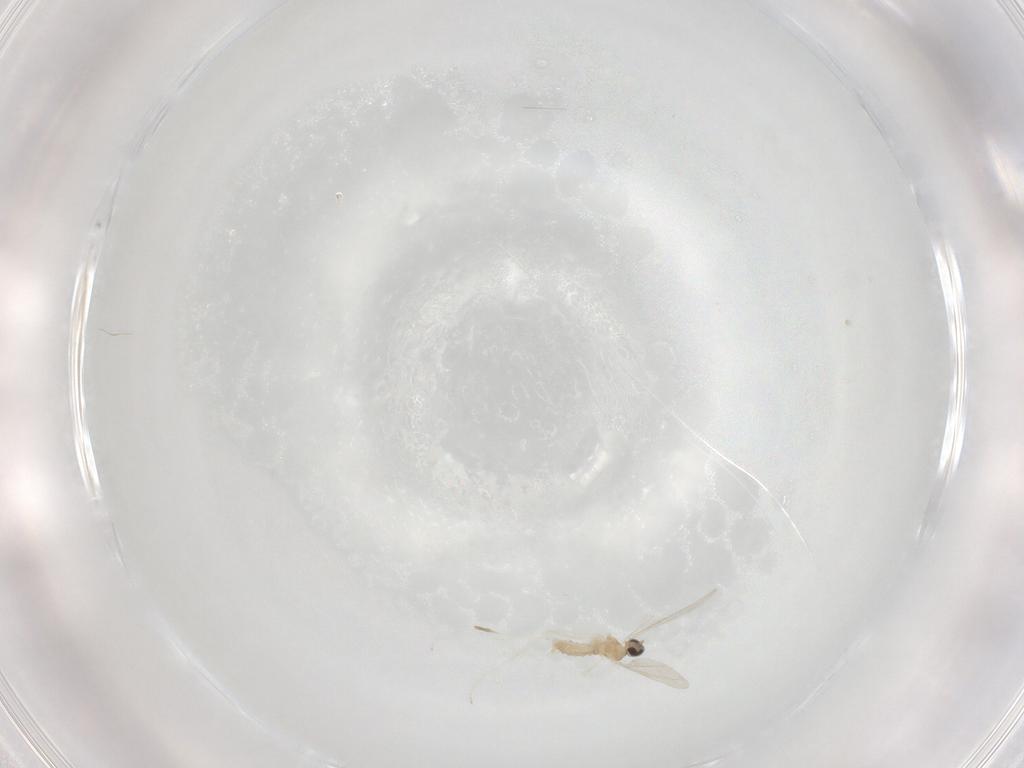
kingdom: Animalia
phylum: Arthropoda
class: Insecta
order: Diptera
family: Cecidomyiidae
